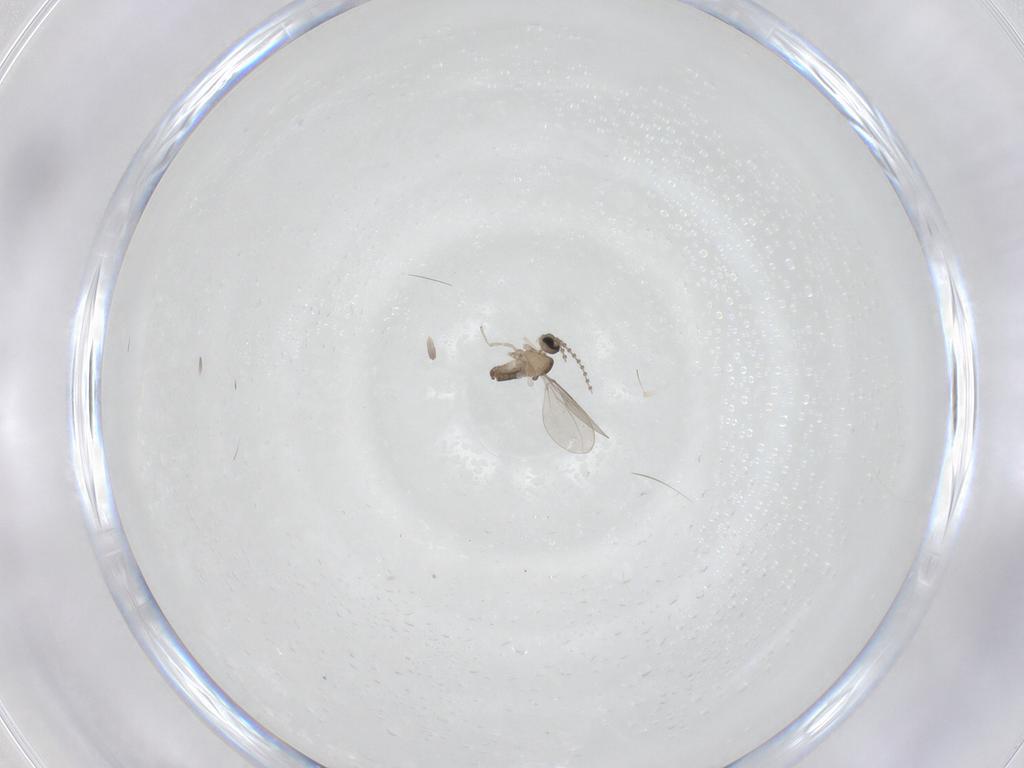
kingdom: Animalia
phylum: Arthropoda
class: Insecta
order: Diptera
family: Cecidomyiidae
